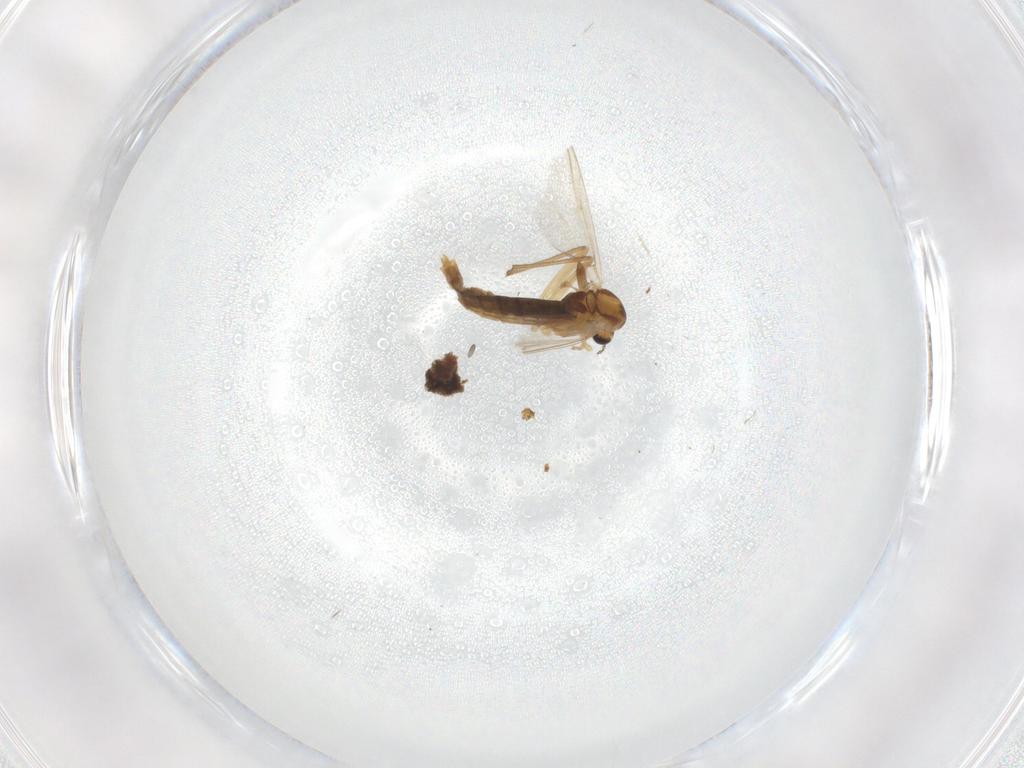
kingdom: Animalia
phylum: Arthropoda
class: Insecta
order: Diptera
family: Chironomidae
